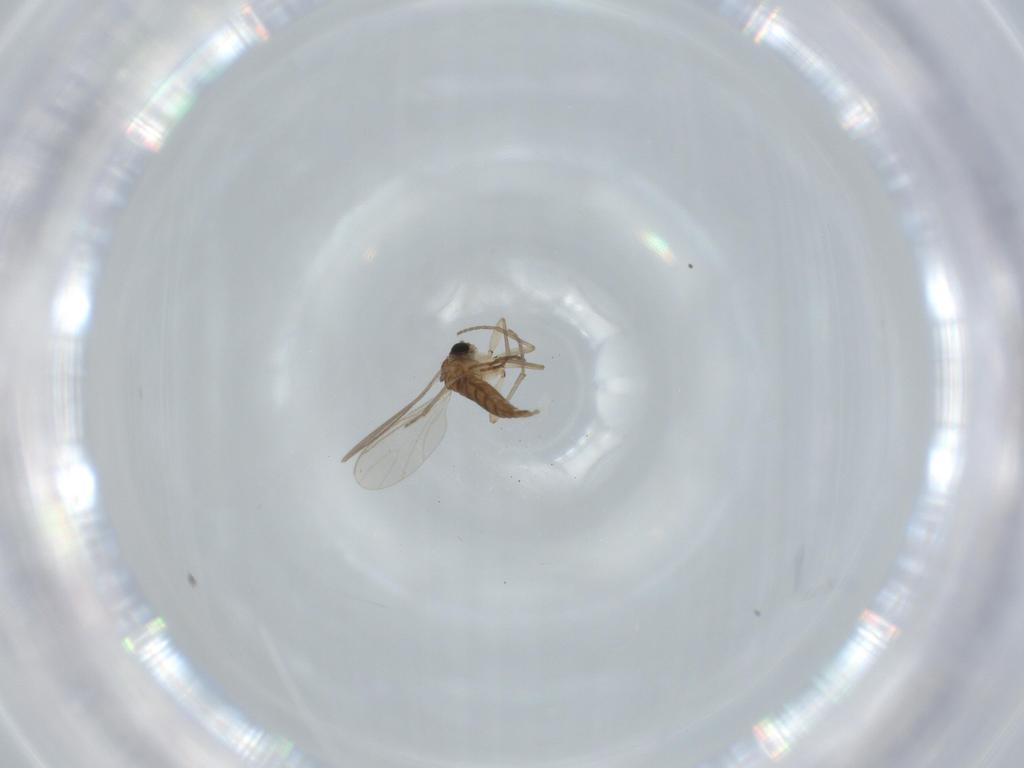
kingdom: Animalia
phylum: Arthropoda
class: Insecta
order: Diptera
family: Sciaridae
